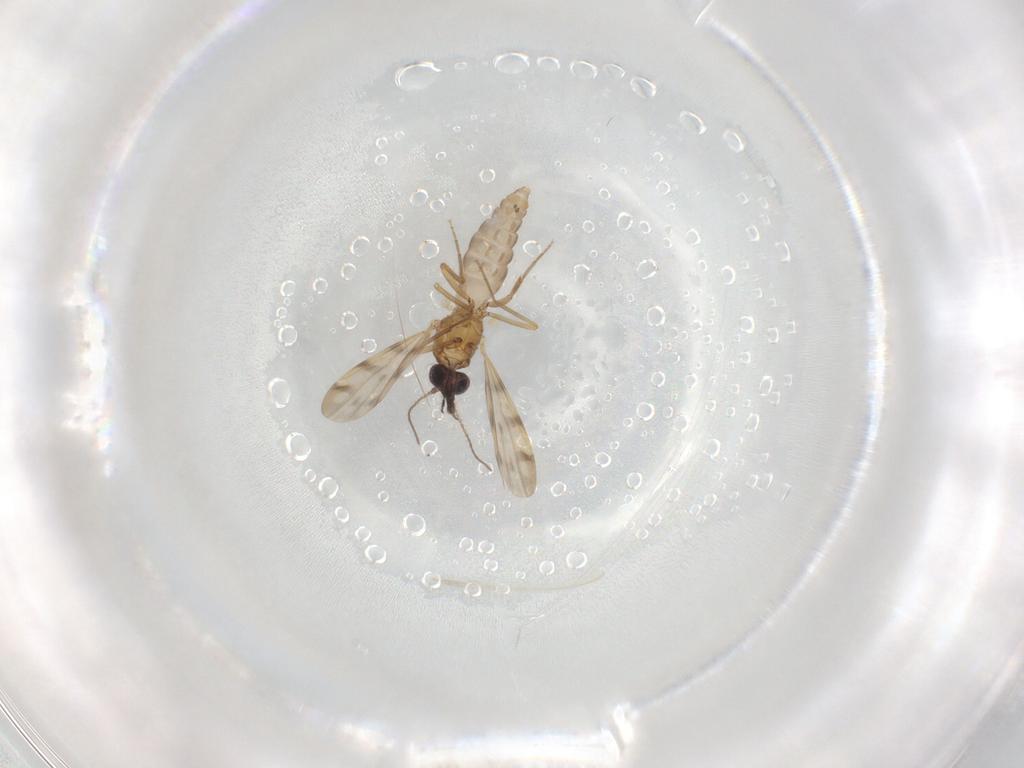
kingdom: Animalia
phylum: Arthropoda
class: Insecta
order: Diptera
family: Ceratopogonidae
